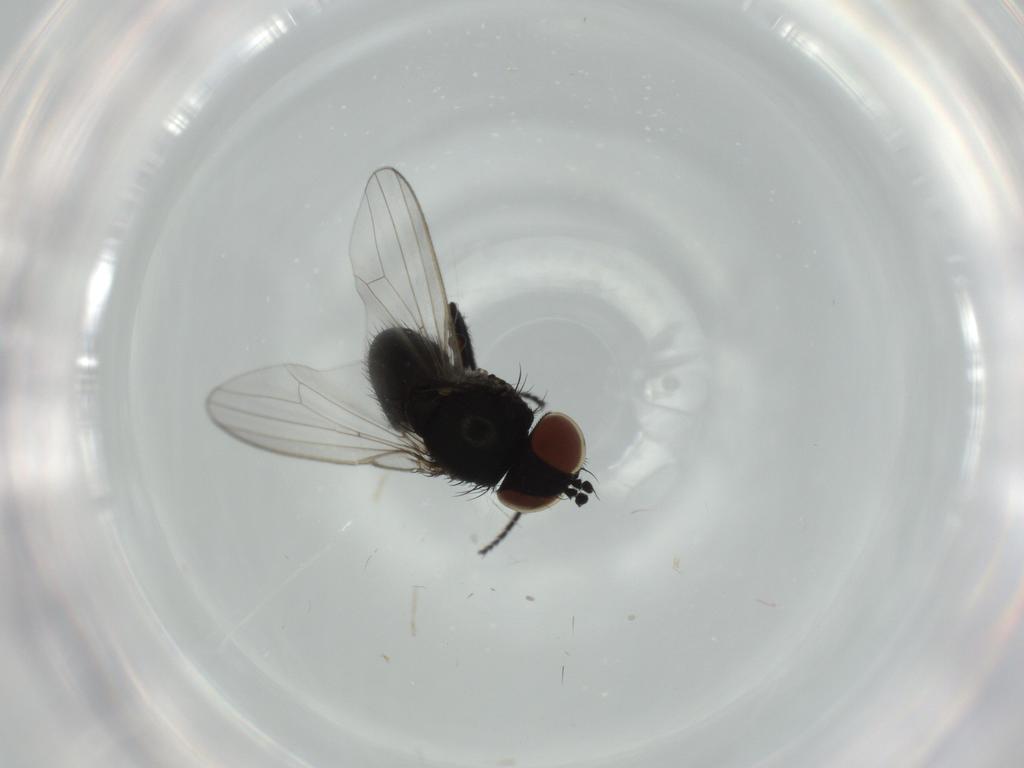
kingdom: Animalia
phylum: Arthropoda
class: Insecta
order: Diptera
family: Milichiidae
